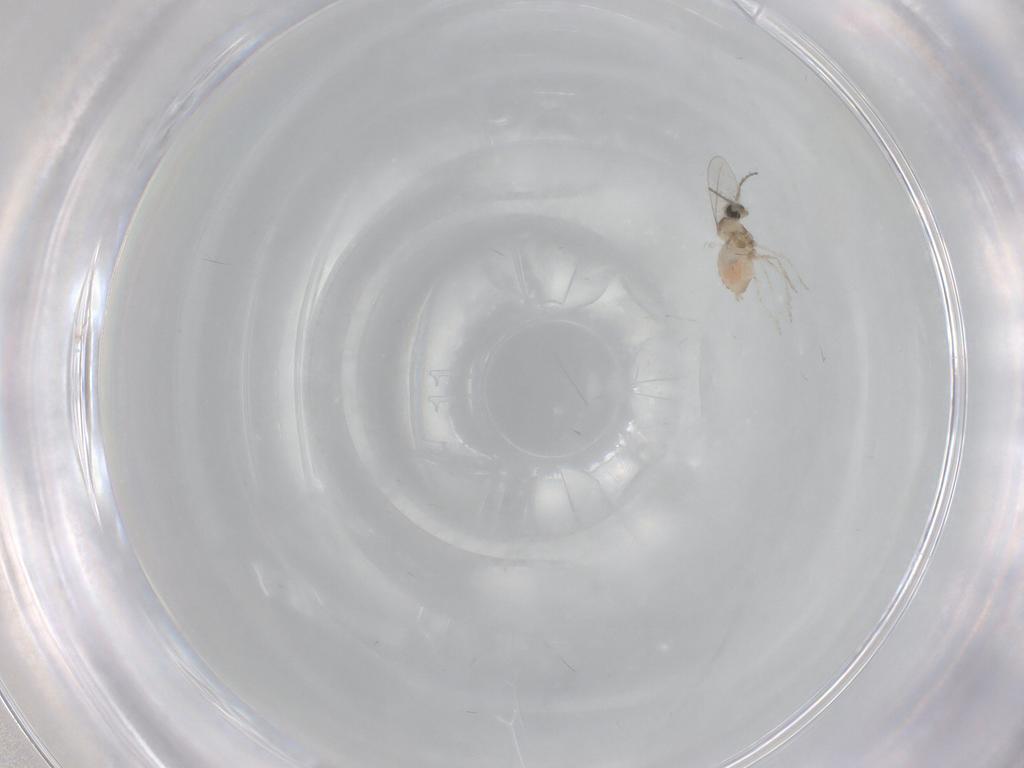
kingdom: Animalia
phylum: Arthropoda
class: Insecta
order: Diptera
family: Cecidomyiidae
